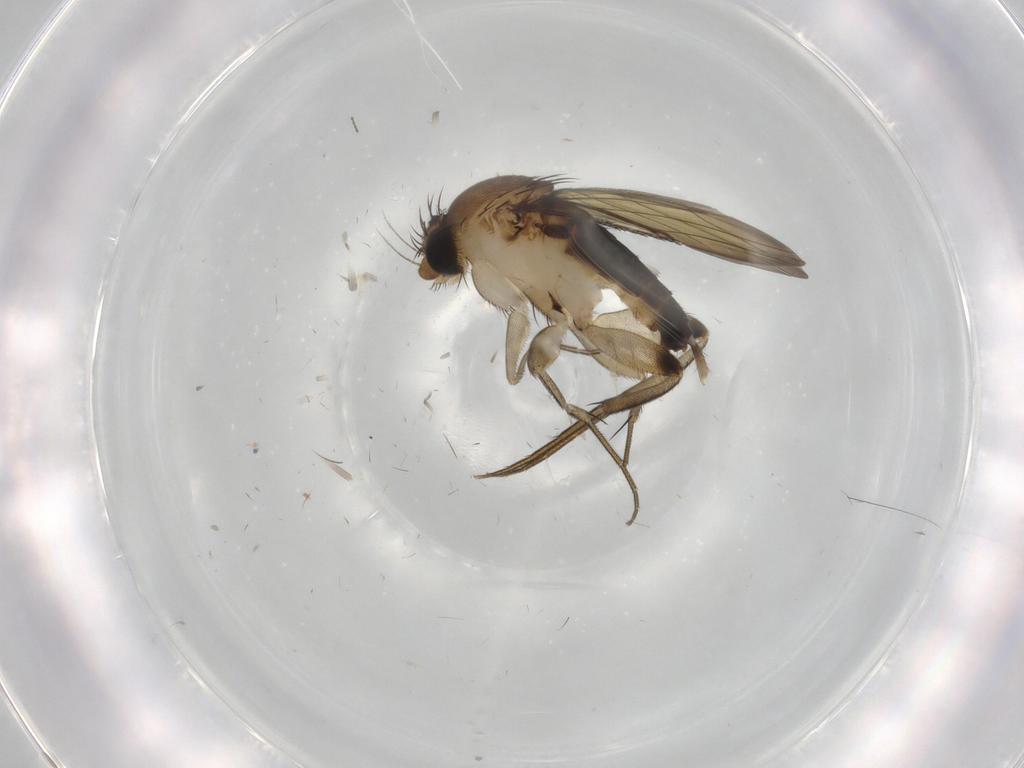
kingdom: Animalia
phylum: Arthropoda
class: Insecta
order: Diptera
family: Phoridae
